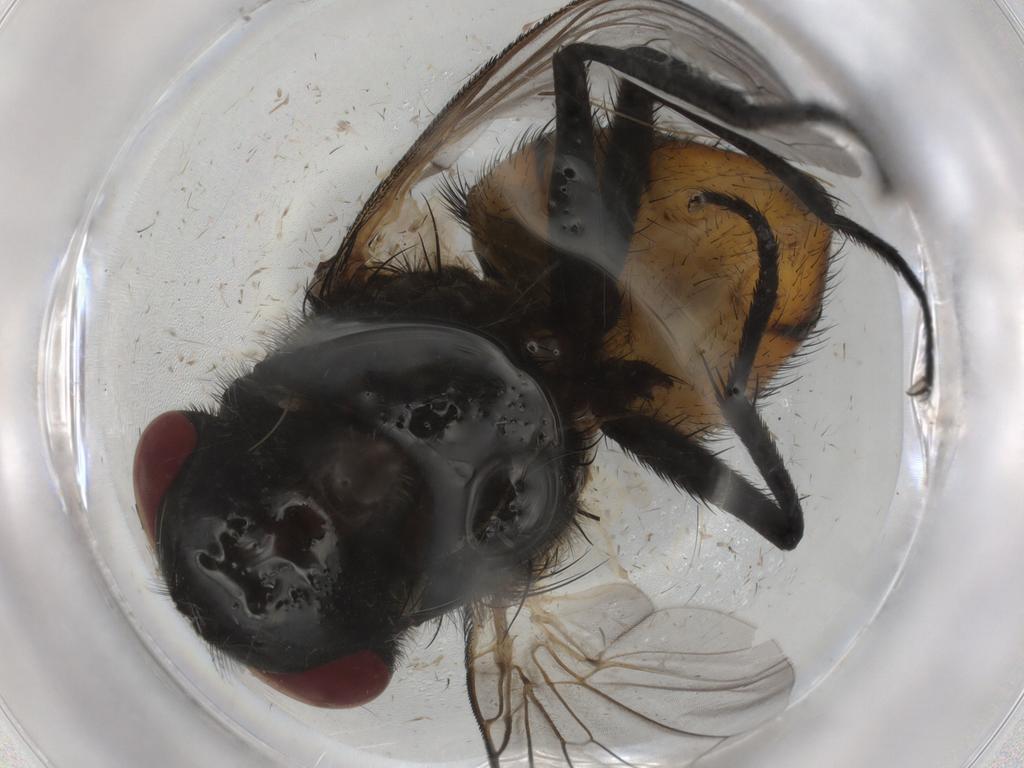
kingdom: Animalia
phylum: Arthropoda
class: Insecta
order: Diptera
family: Muscidae
